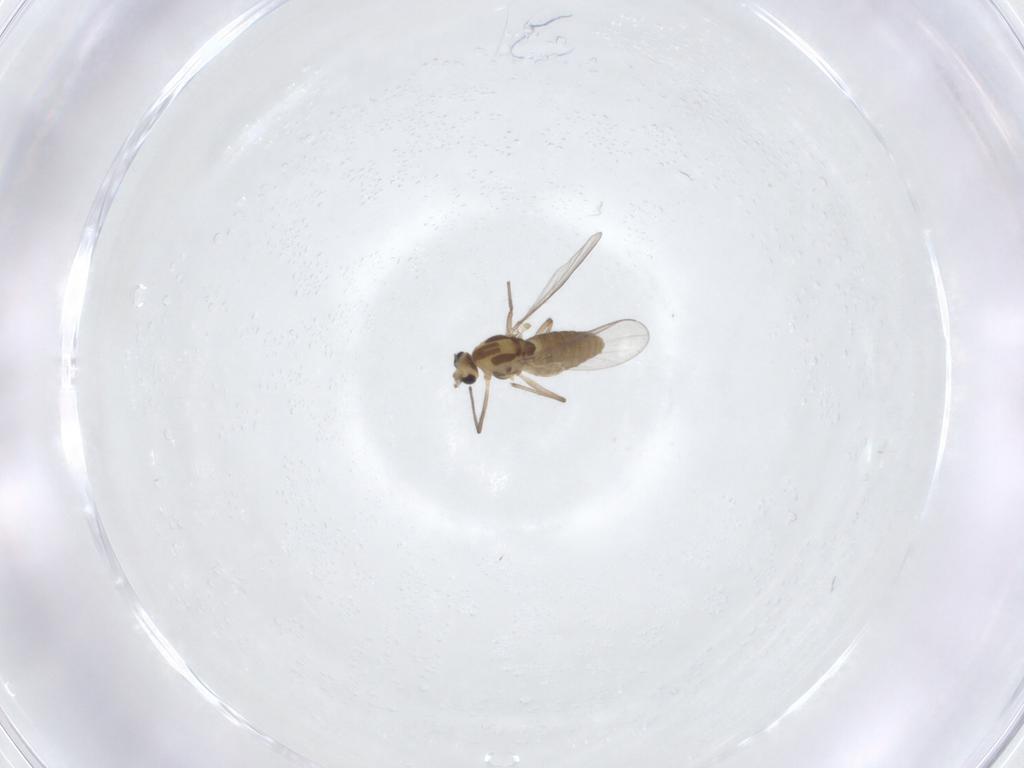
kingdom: Animalia
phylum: Arthropoda
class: Insecta
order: Diptera
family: Chironomidae
